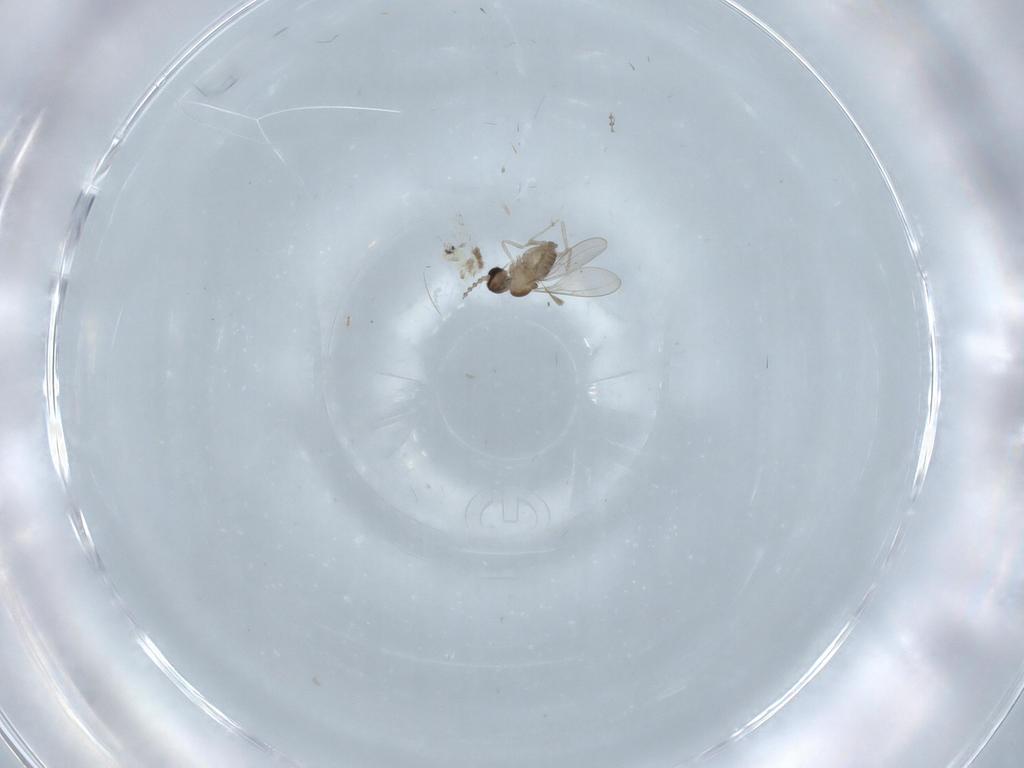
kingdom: Animalia
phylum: Arthropoda
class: Insecta
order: Diptera
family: Cecidomyiidae
